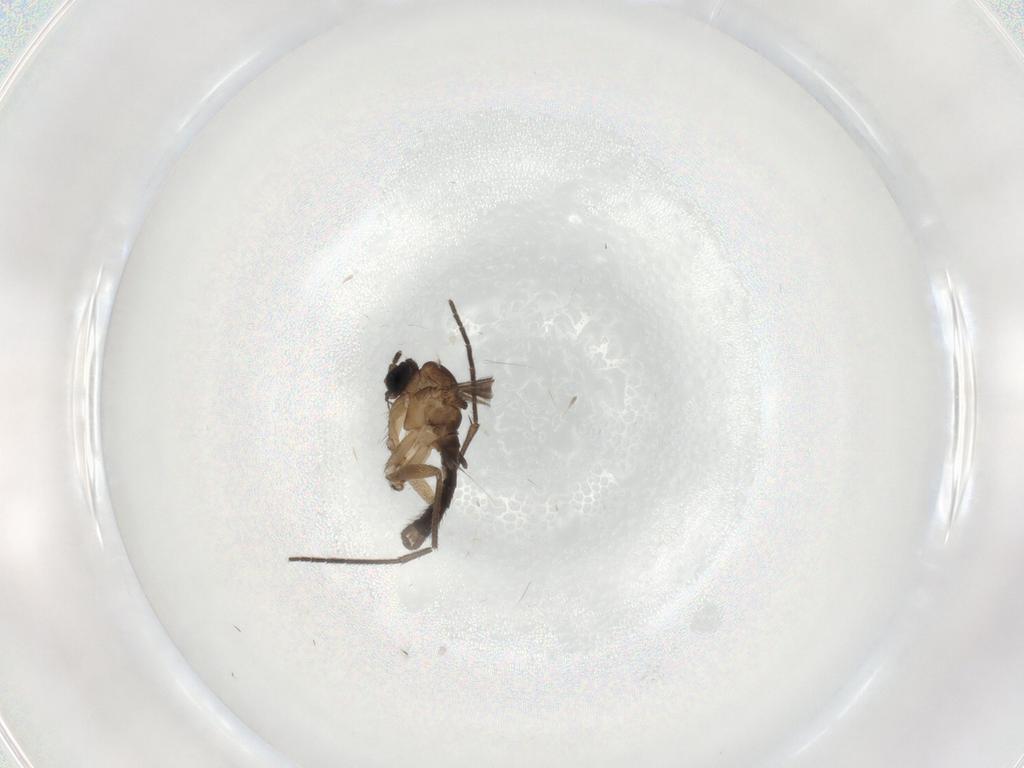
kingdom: Animalia
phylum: Arthropoda
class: Insecta
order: Diptera
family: Sciaridae
